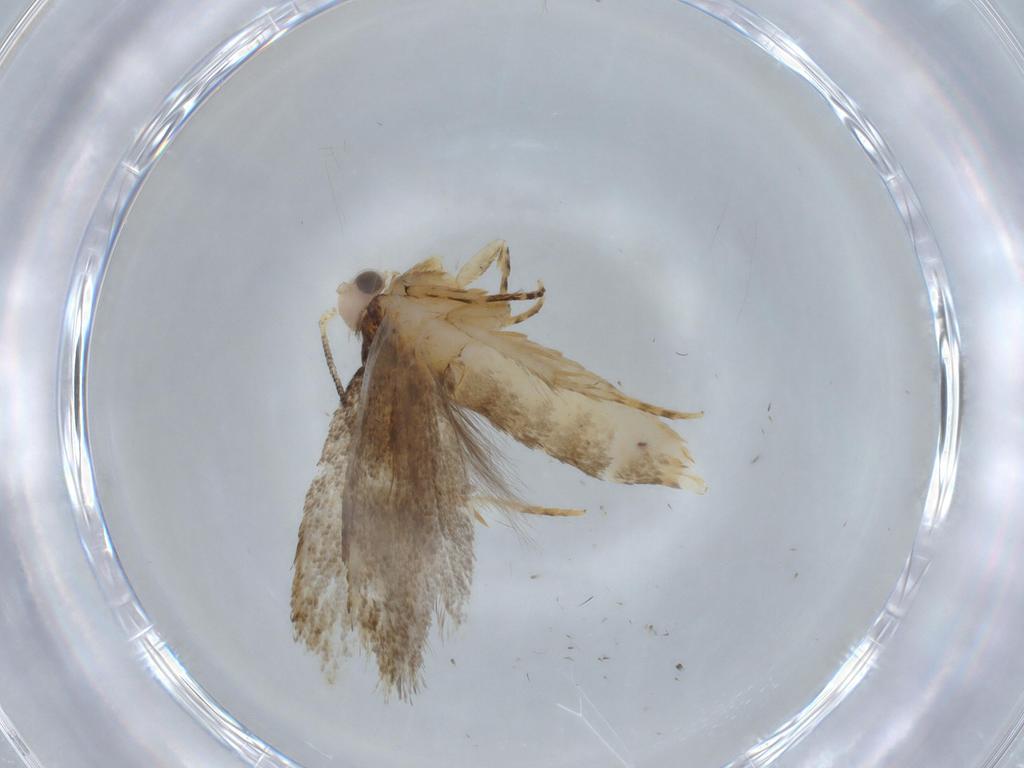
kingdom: Animalia
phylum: Arthropoda
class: Insecta
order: Lepidoptera
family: Tineidae
